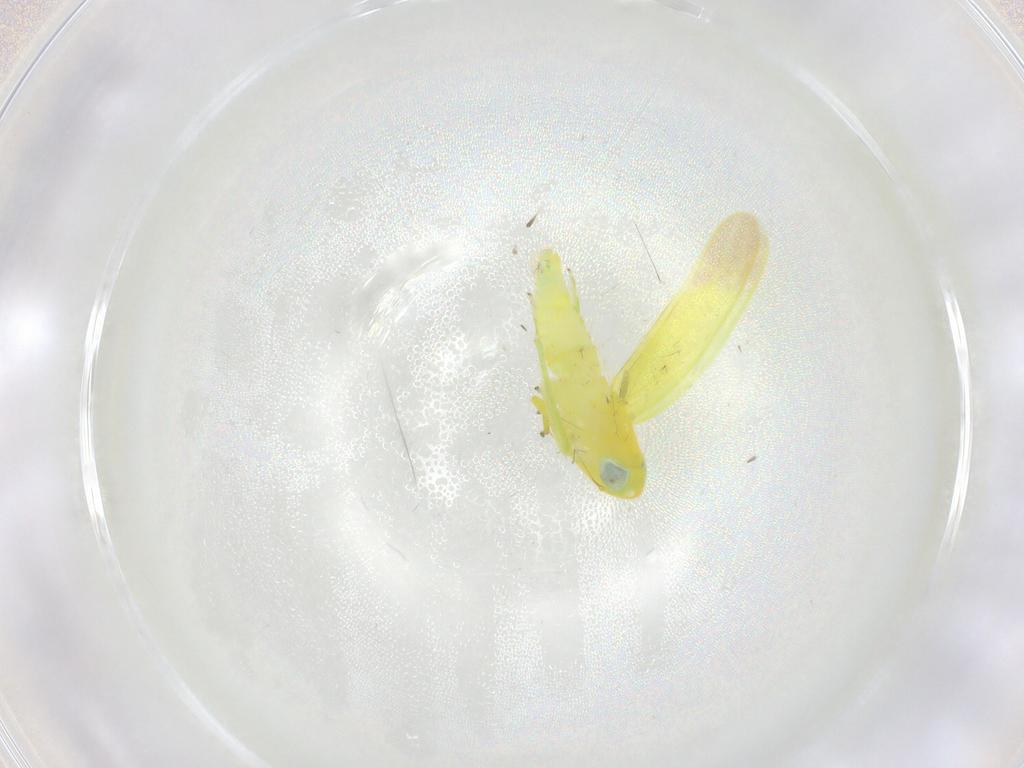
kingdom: Animalia
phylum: Arthropoda
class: Insecta
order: Hemiptera
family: Cicadellidae
